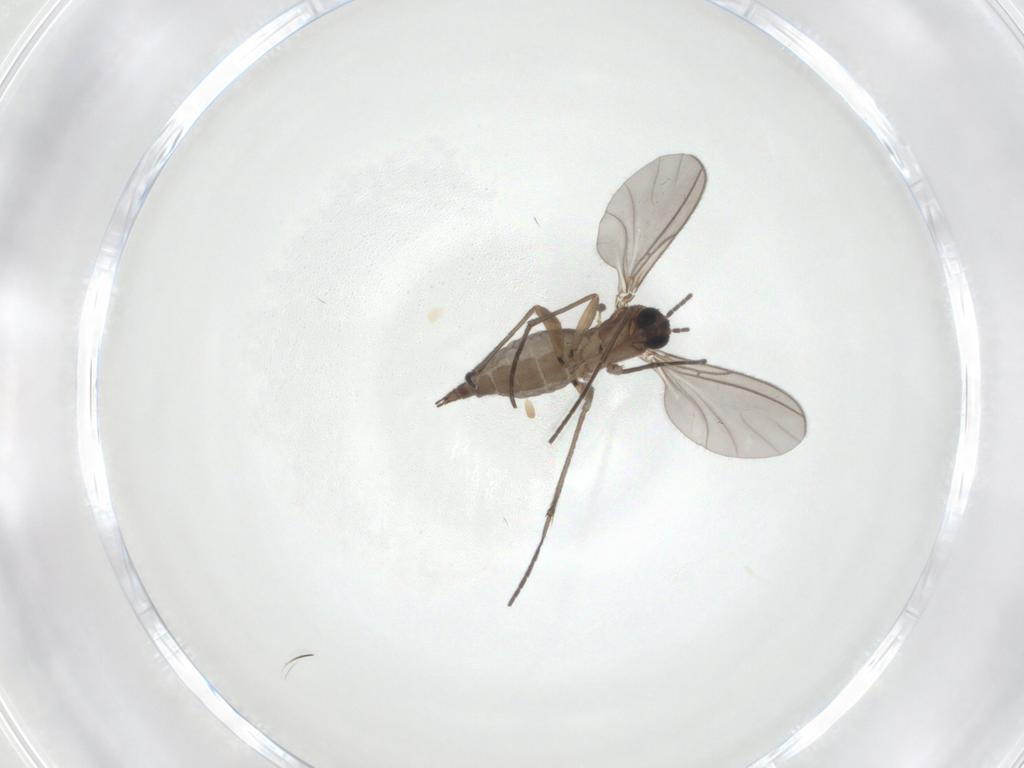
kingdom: Animalia
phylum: Arthropoda
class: Insecta
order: Diptera
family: Sciaridae
